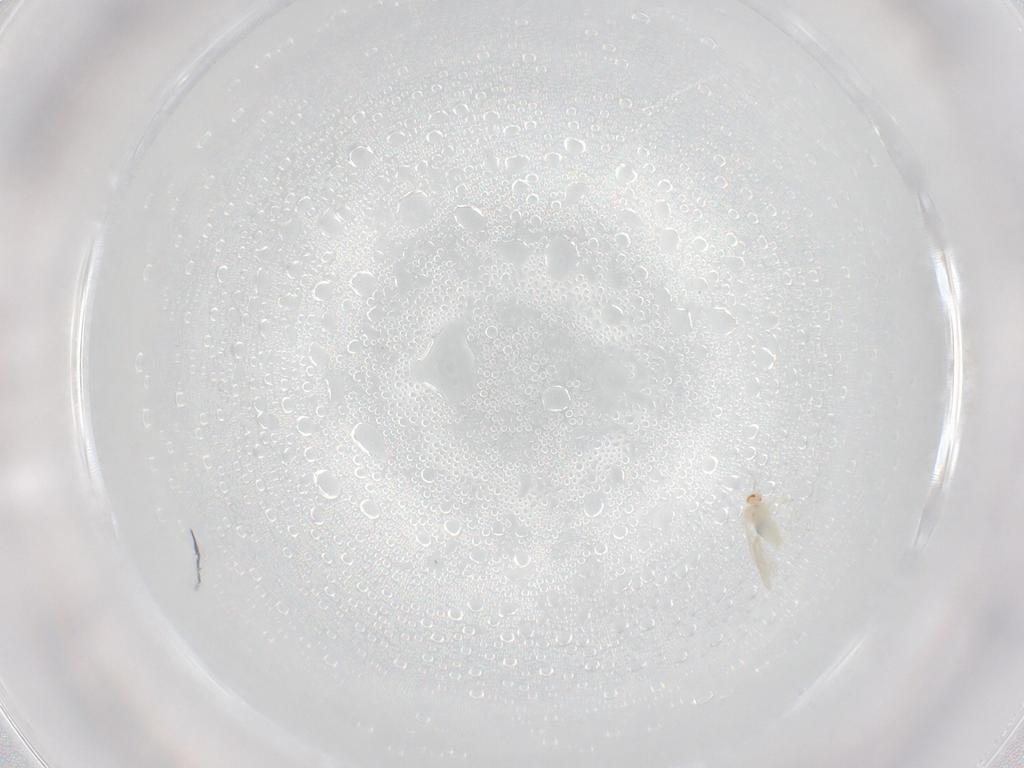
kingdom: Animalia
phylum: Arthropoda
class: Insecta
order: Diptera
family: Cecidomyiidae
